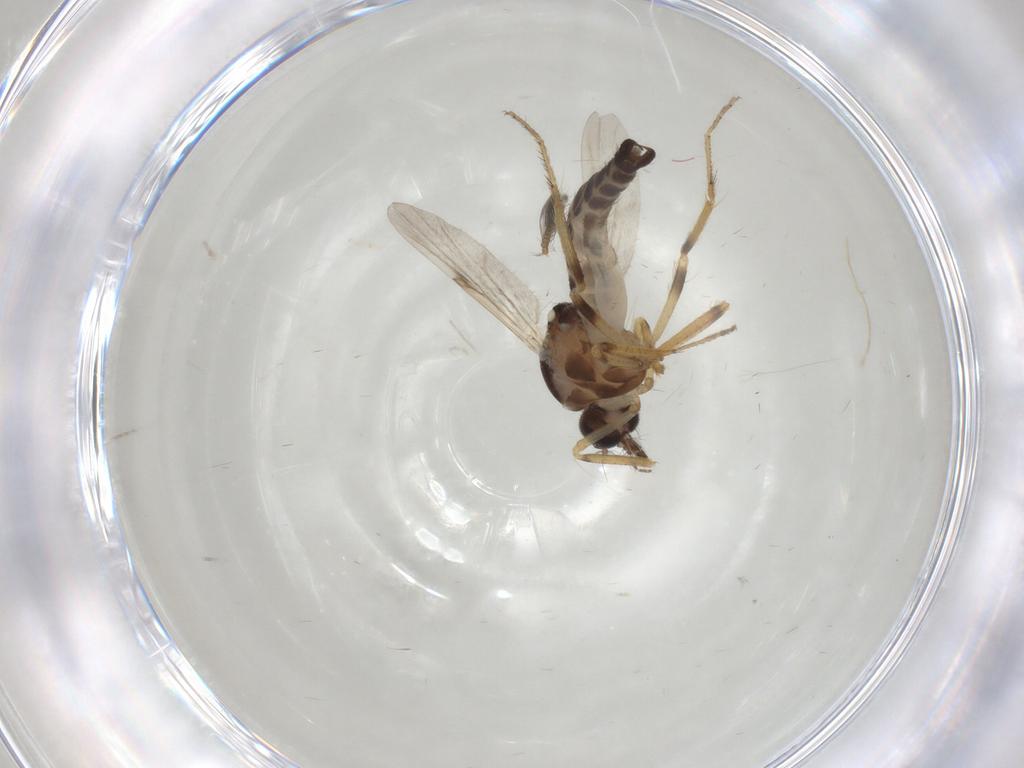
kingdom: Animalia
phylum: Arthropoda
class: Insecta
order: Diptera
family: Ceratopogonidae
